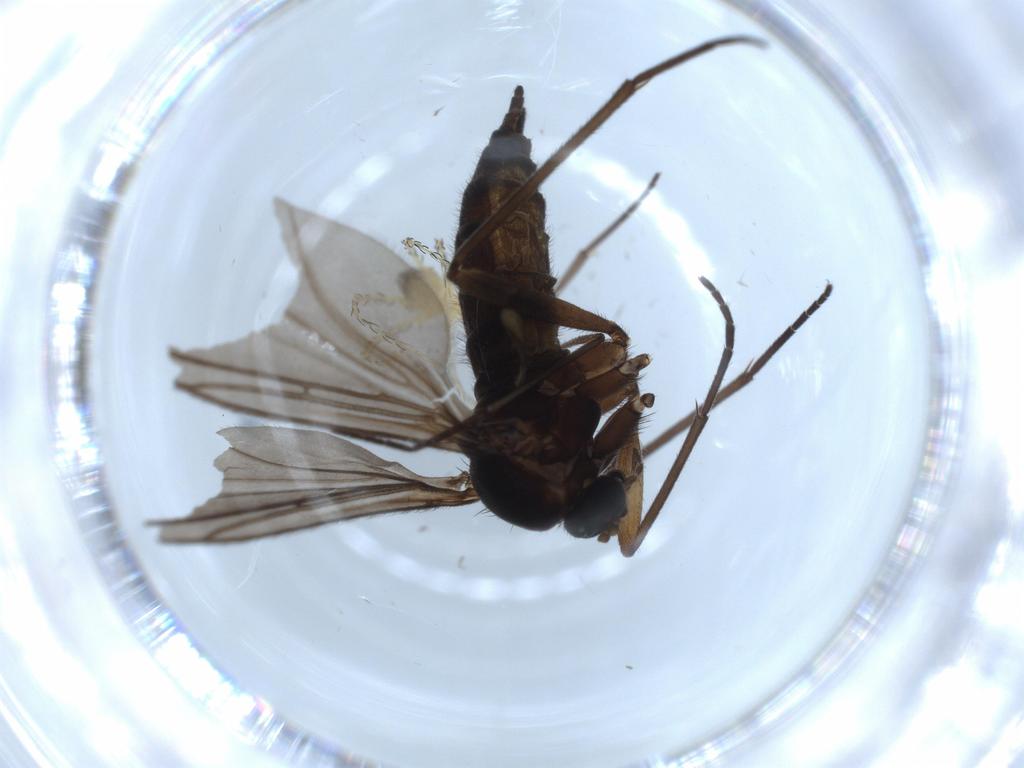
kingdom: Animalia
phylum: Arthropoda
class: Insecta
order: Diptera
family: Sciaridae
